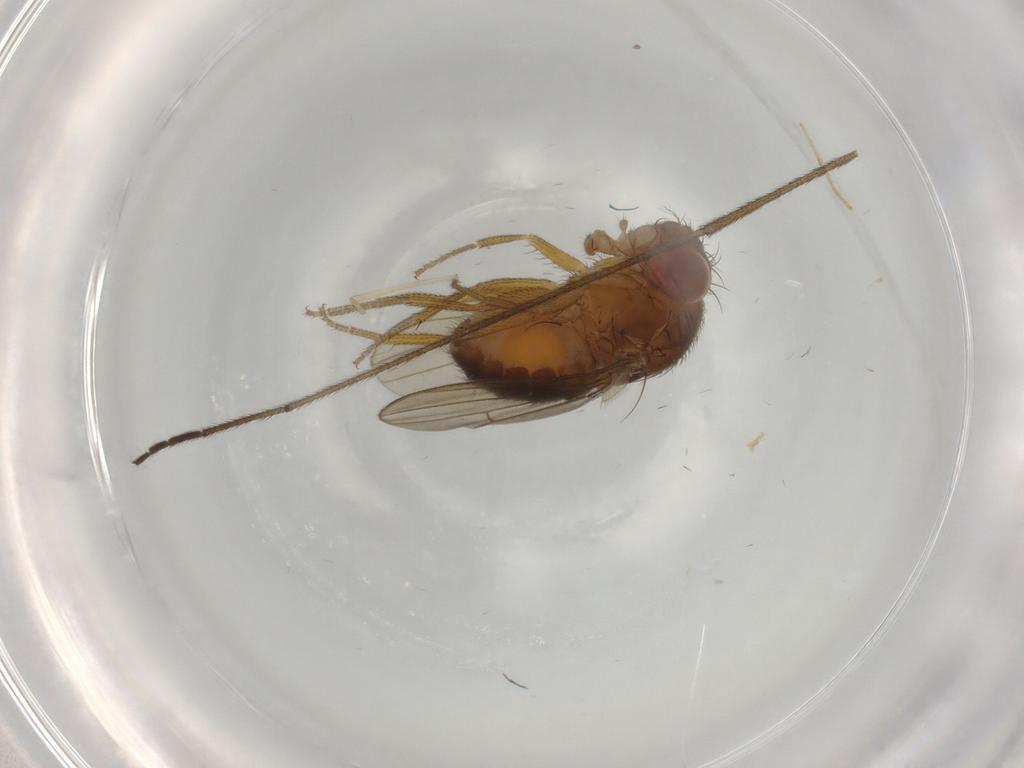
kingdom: Animalia
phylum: Arthropoda
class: Insecta
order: Diptera
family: Drosophilidae
